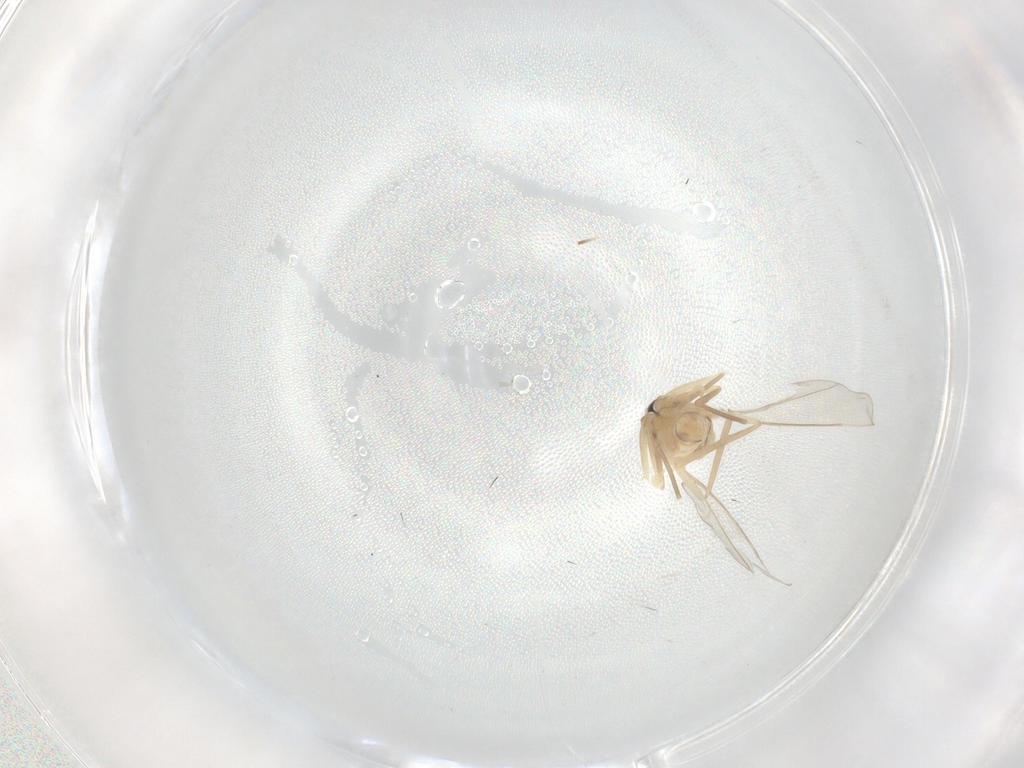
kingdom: Animalia
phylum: Arthropoda
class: Insecta
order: Diptera
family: Cecidomyiidae
